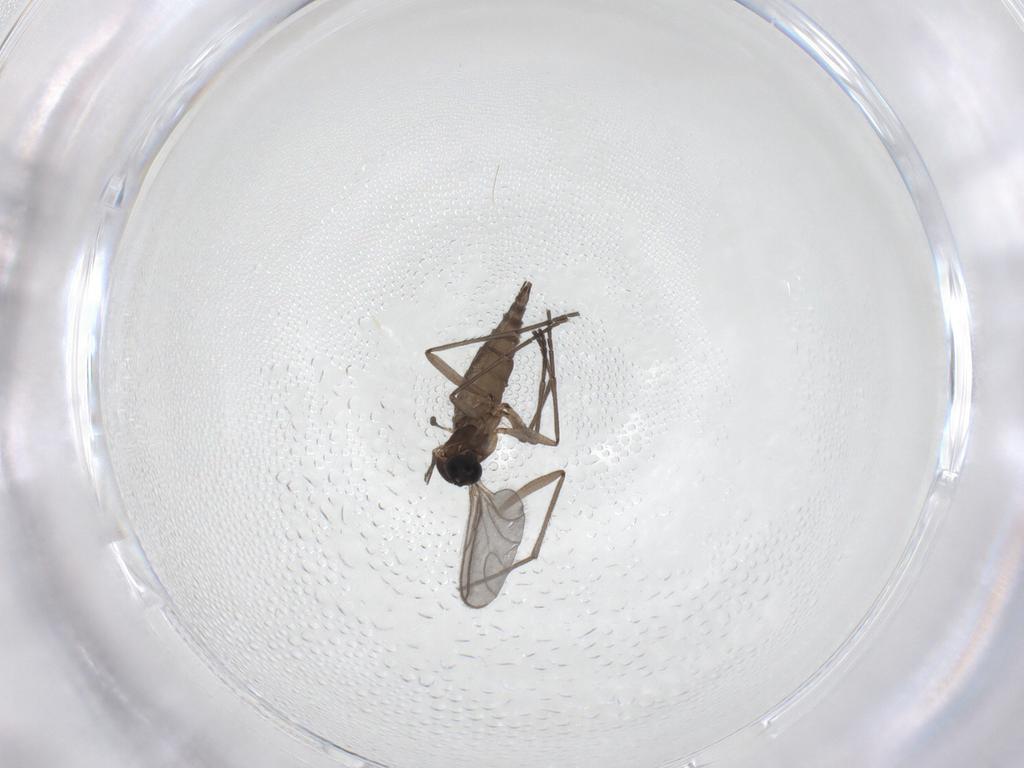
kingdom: Animalia
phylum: Arthropoda
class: Insecta
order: Diptera
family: Sciaridae
